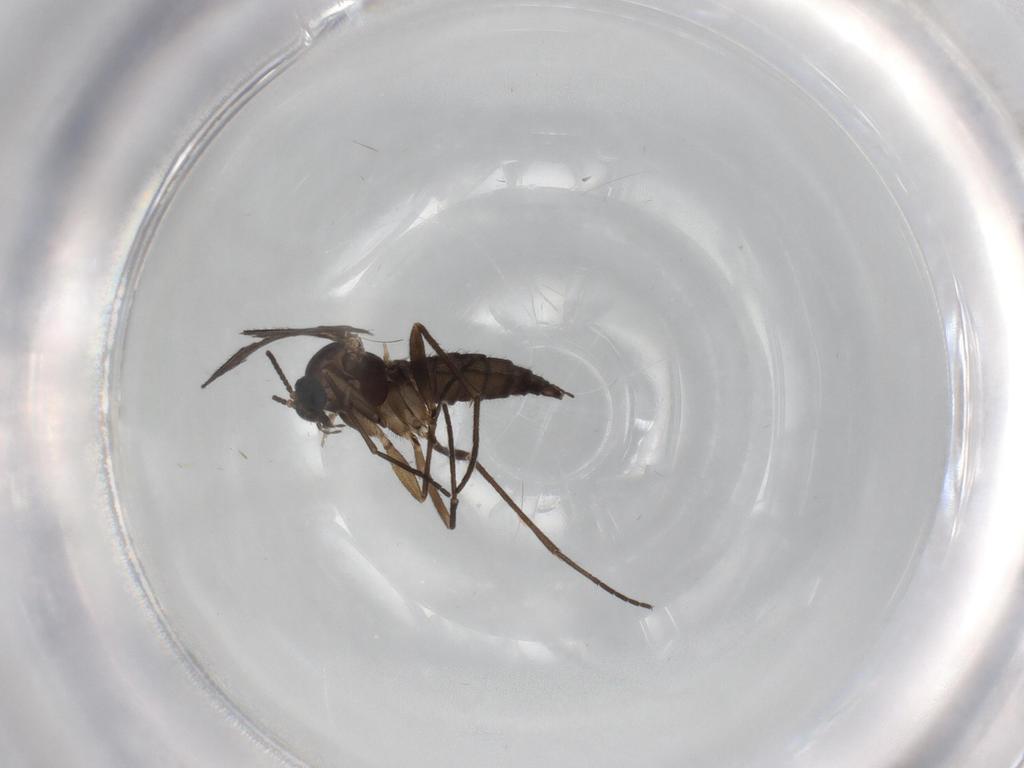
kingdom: Animalia
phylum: Arthropoda
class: Insecta
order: Diptera
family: Sciaridae
